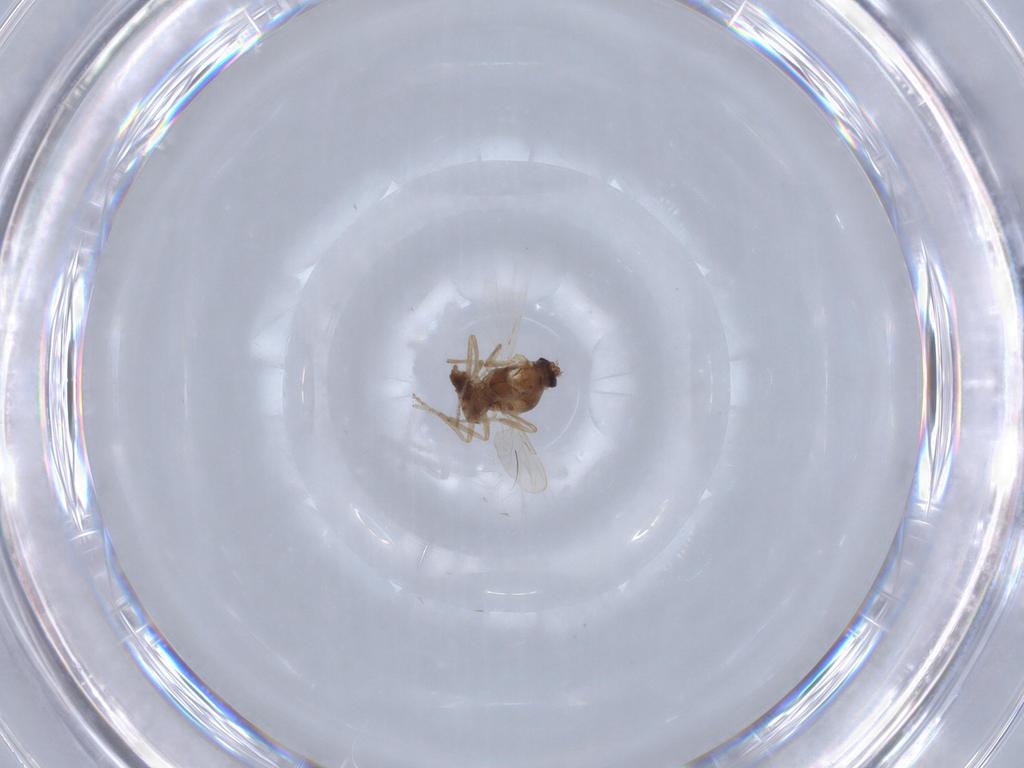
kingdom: Animalia
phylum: Arthropoda
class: Insecta
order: Diptera
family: Ceratopogonidae
